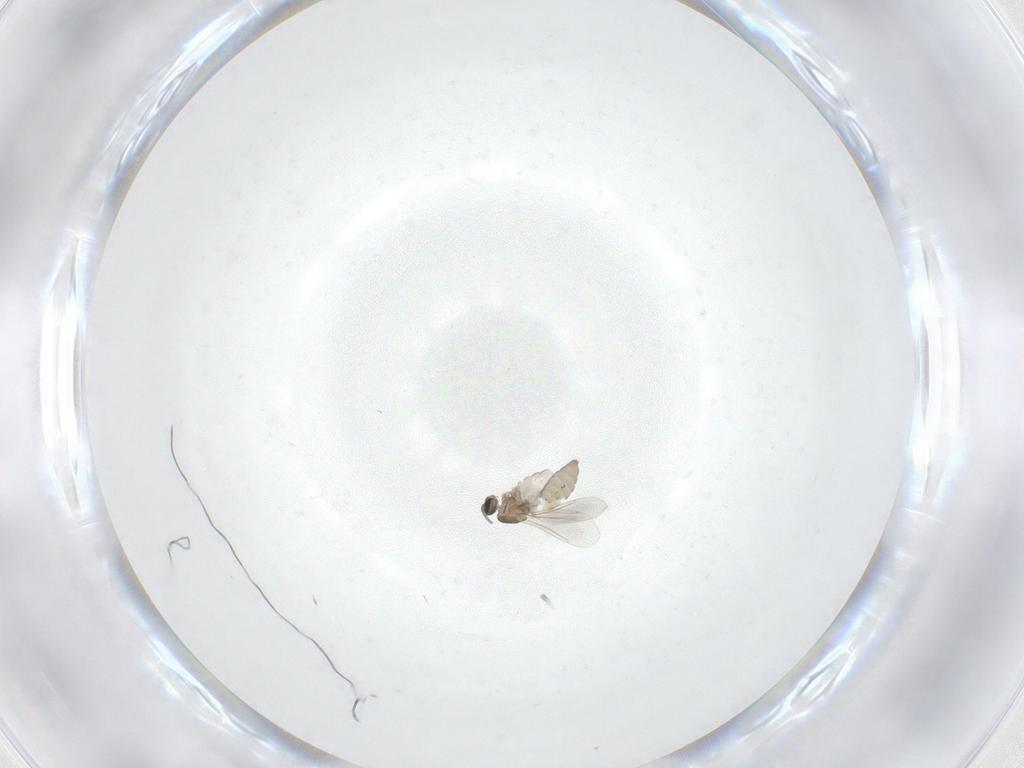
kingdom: Animalia
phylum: Arthropoda
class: Insecta
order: Diptera
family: Cecidomyiidae
